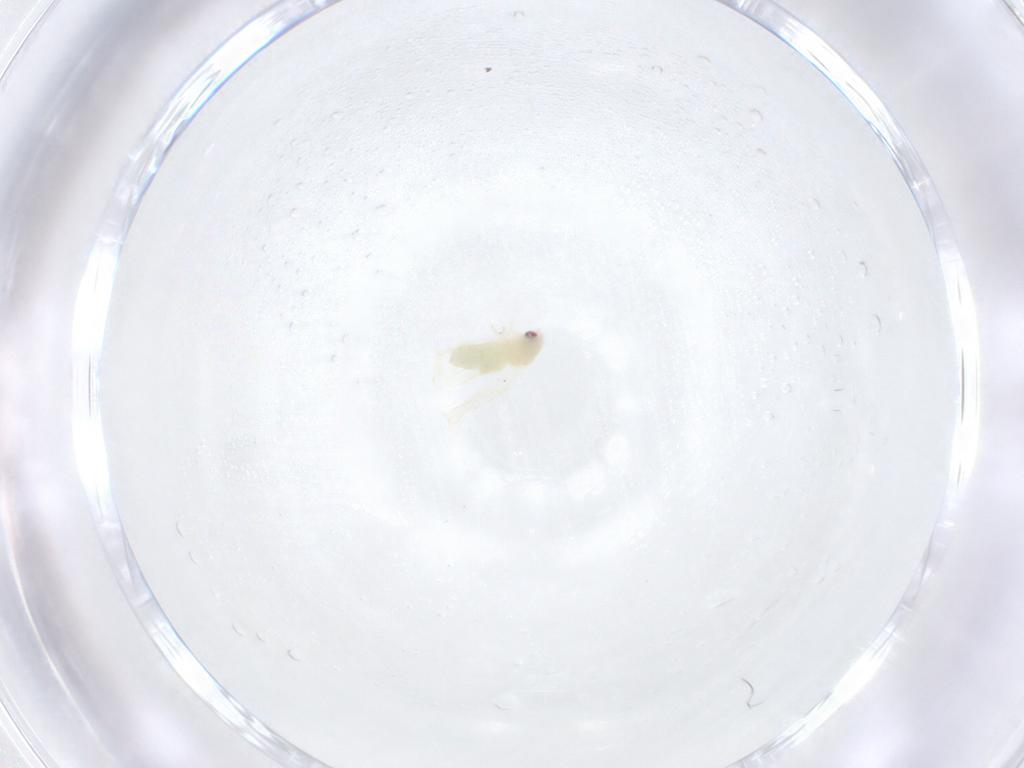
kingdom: Animalia
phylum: Arthropoda
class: Insecta
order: Hemiptera
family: Aleyrodidae
